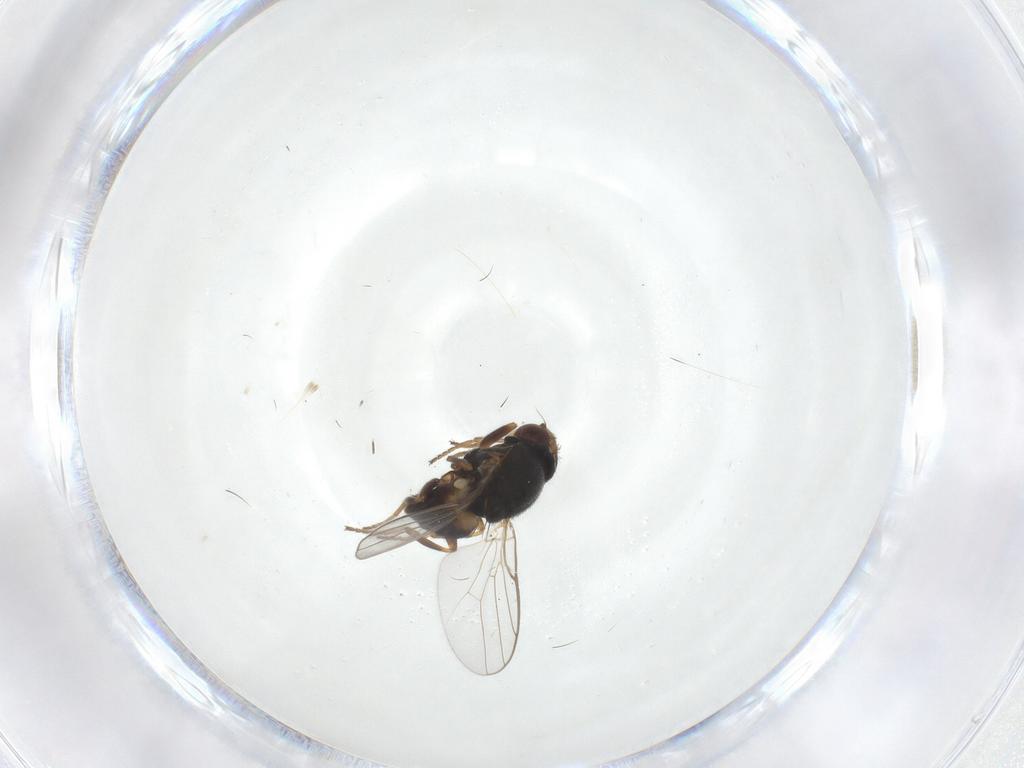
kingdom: Animalia
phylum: Arthropoda
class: Insecta
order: Diptera
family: Chloropidae
